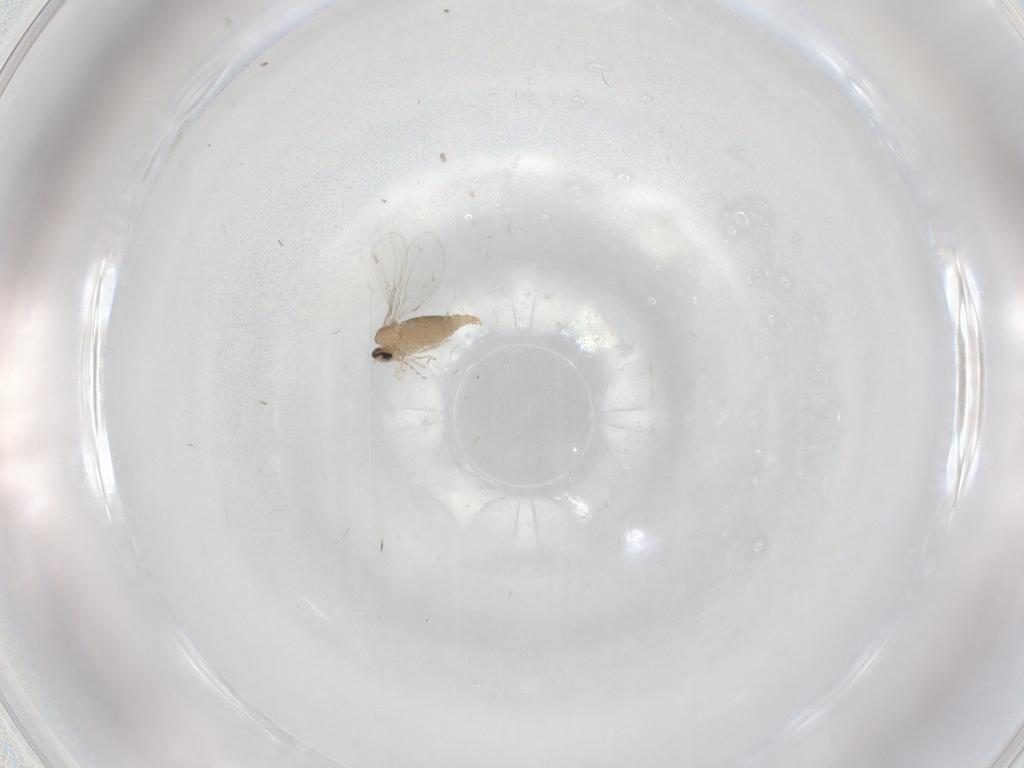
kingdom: Animalia
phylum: Arthropoda
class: Insecta
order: Diptera
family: Cecidomyiidae
